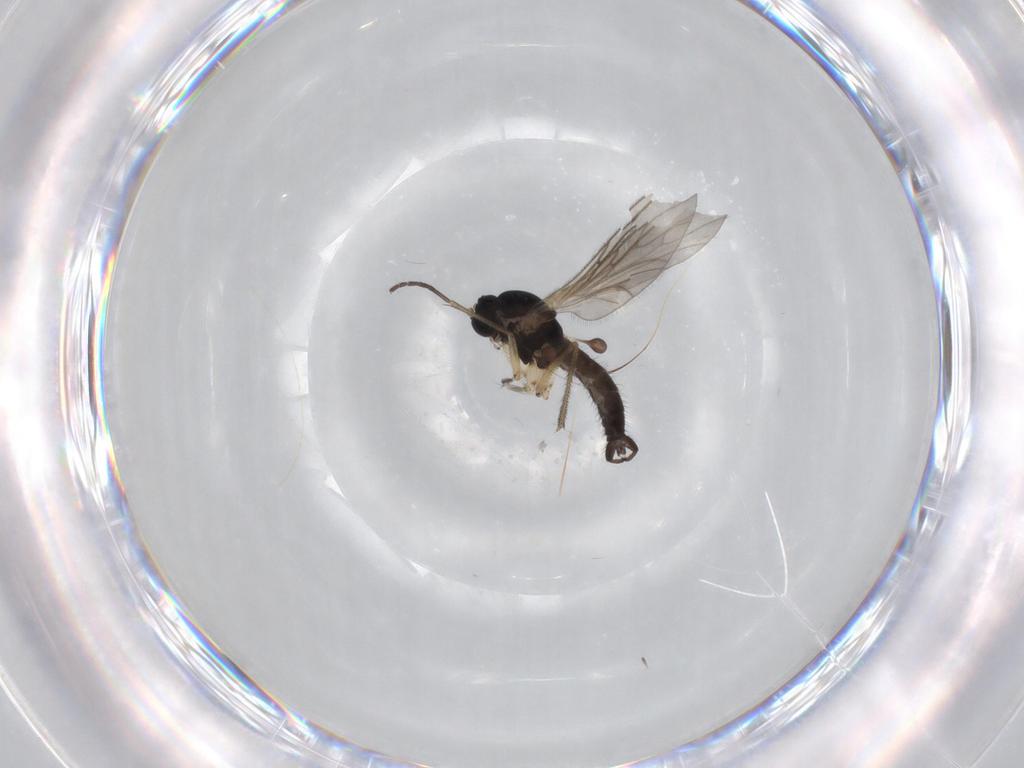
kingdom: Animalia
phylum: Arthropoda
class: Insecta
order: Diptera
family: Sciaridae
